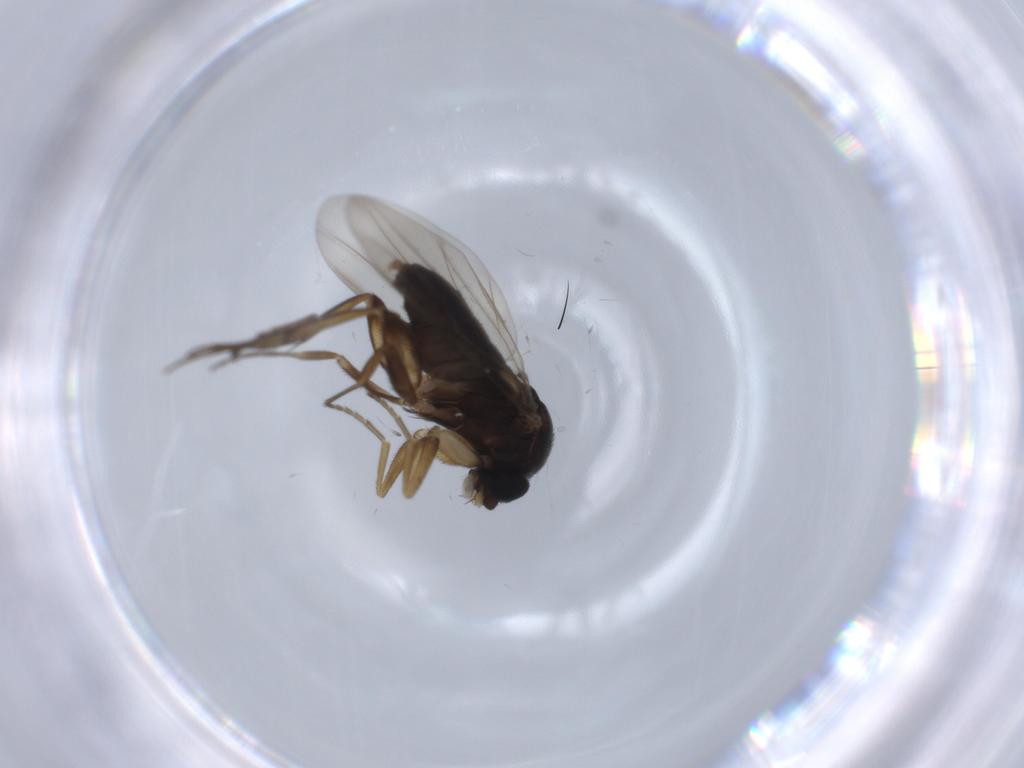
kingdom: Animalia
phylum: Arthropoda
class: Insecta
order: Diptera
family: Phoridae
